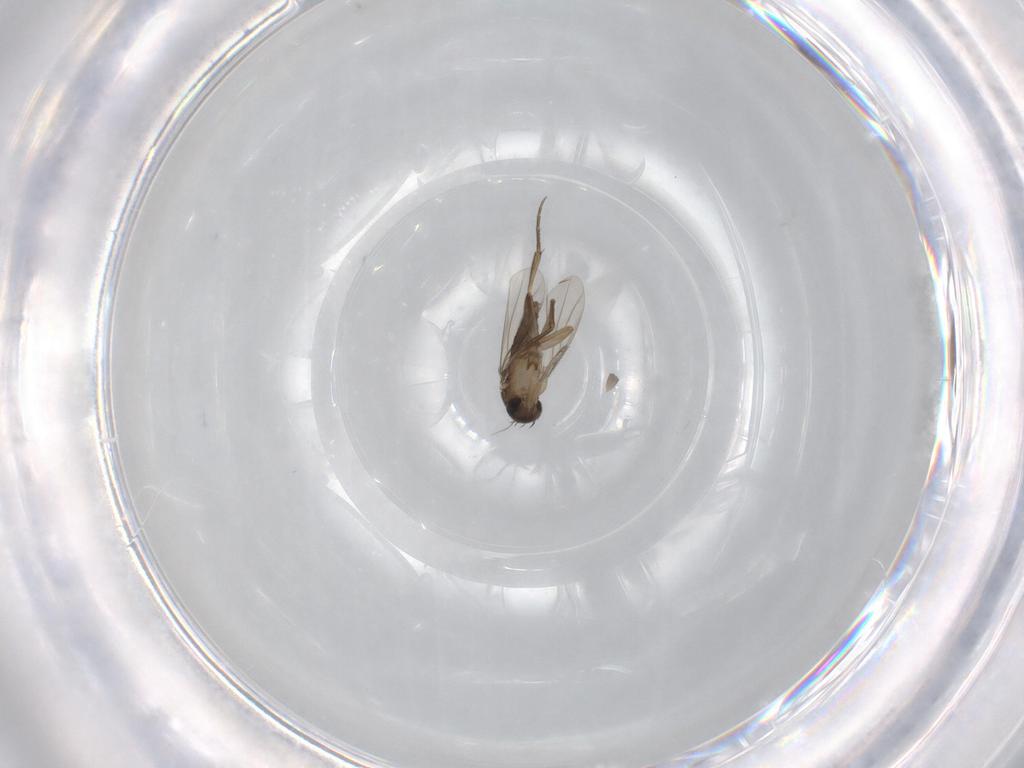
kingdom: Animalia
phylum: Arthropoda
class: Insecta
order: Diptera
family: Phoridae
